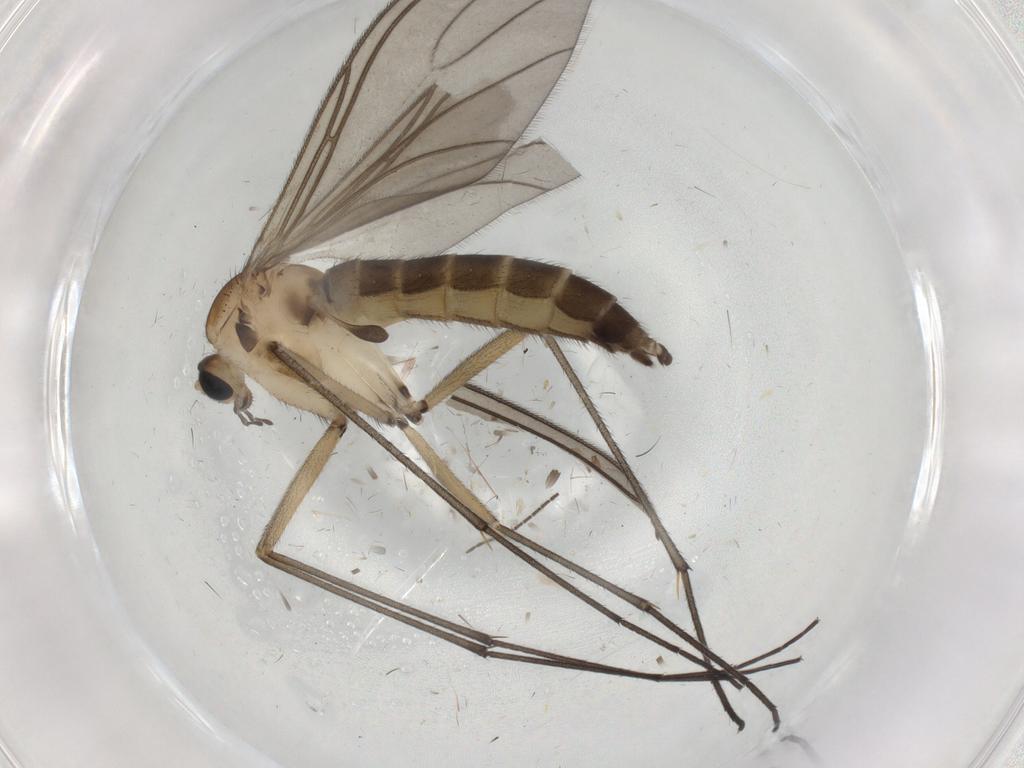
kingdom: Animalia
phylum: Arthropoda
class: Insecta
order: Diptera
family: Sciaridae
